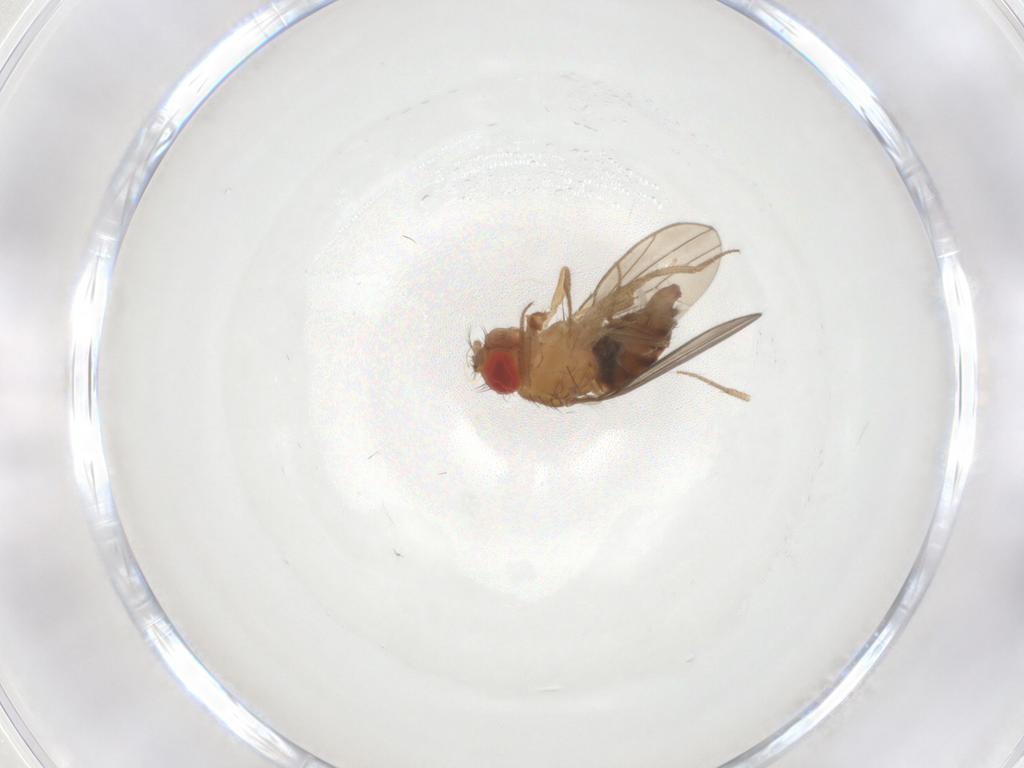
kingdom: Animalia
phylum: Arthropoda
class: Insecta
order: Diptera
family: Drosophilidae
